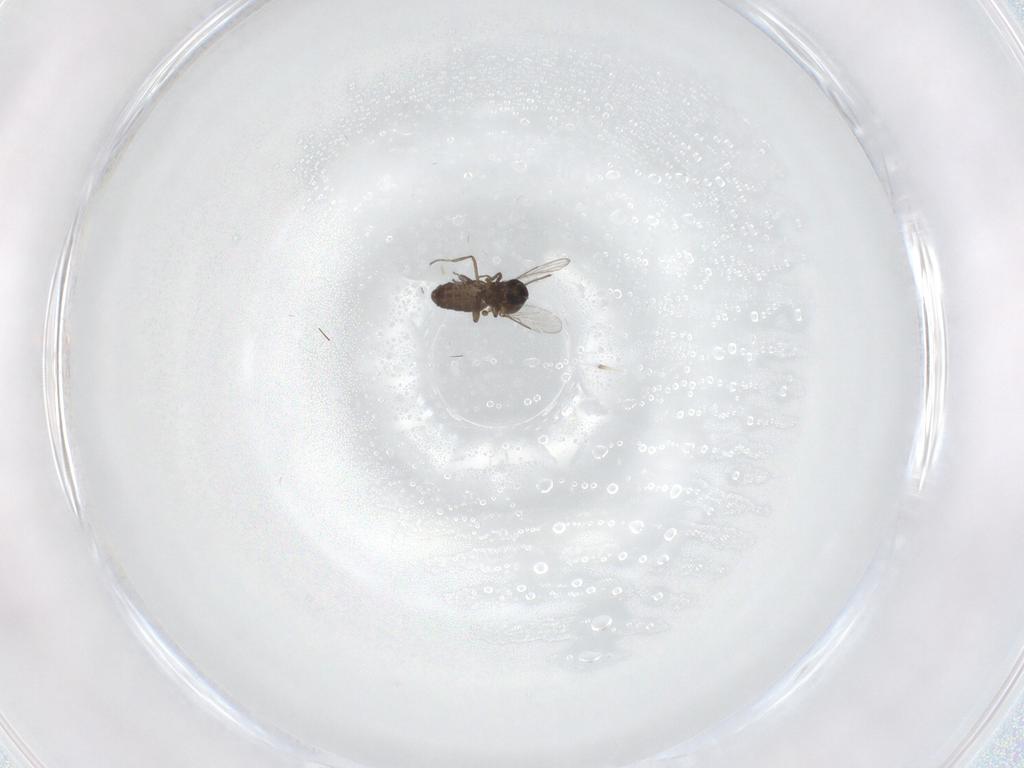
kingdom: Animalia
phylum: Arthropoda
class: Insecta
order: Diptera
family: Ceratopogonidae
